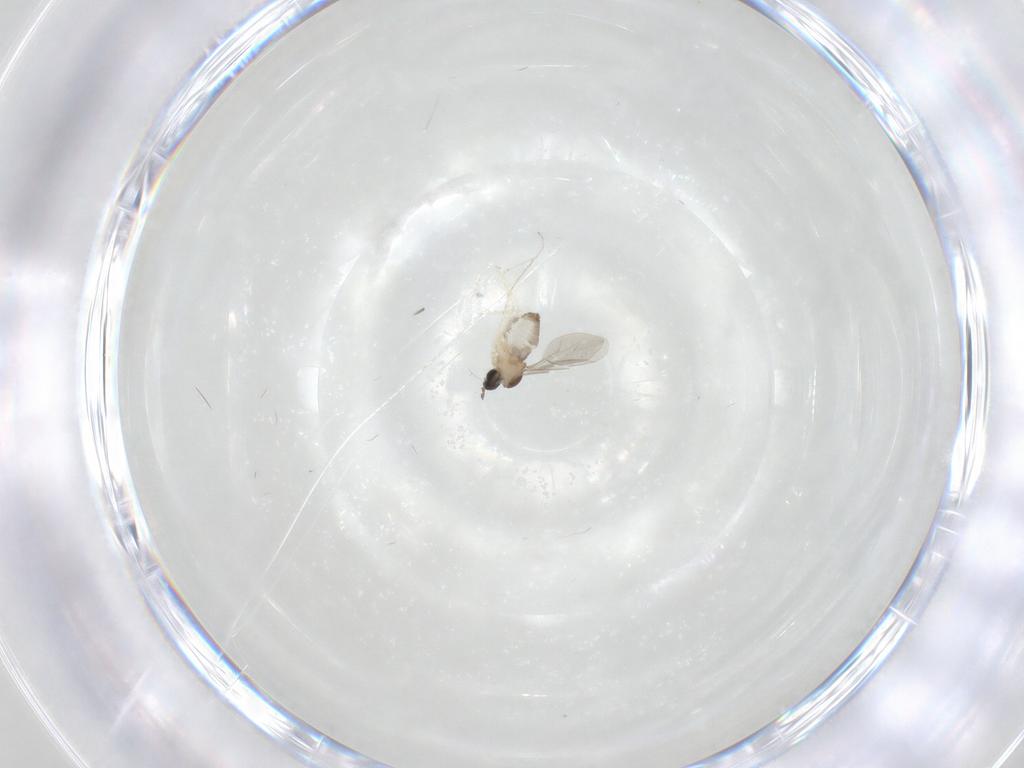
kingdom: Animalia
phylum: Arthropoda
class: Insecta
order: Diptera
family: Cecidomyiidae
